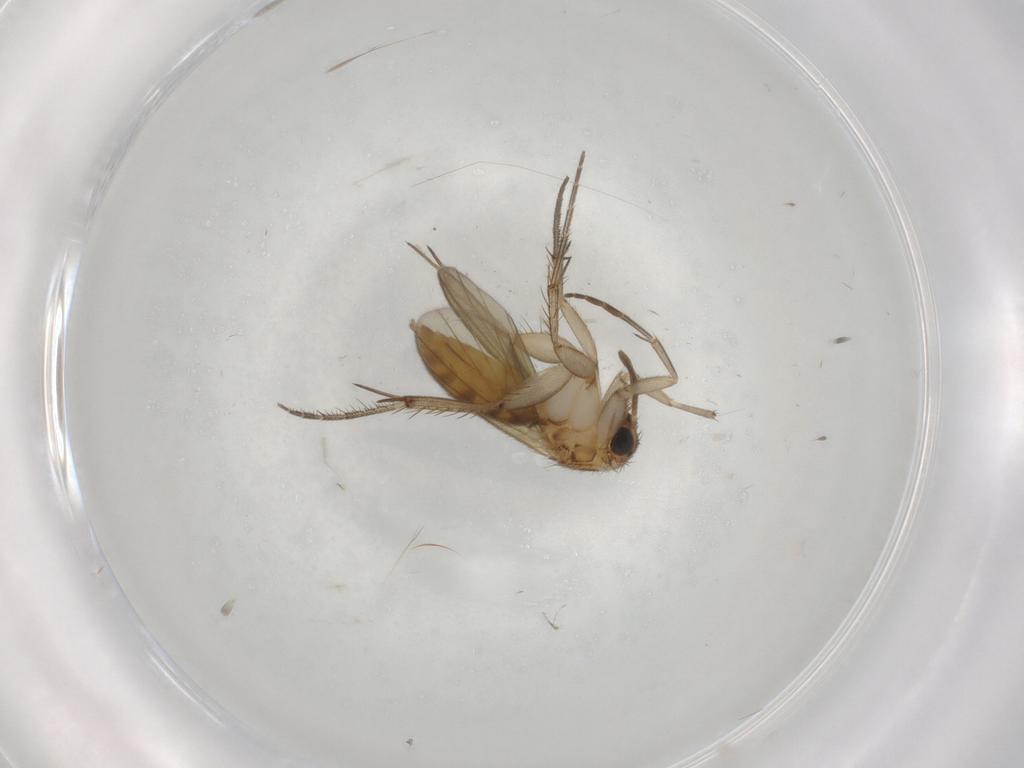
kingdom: Animalia
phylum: Arthropoda
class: Insecta
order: Diptera
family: Mycetophilidae
